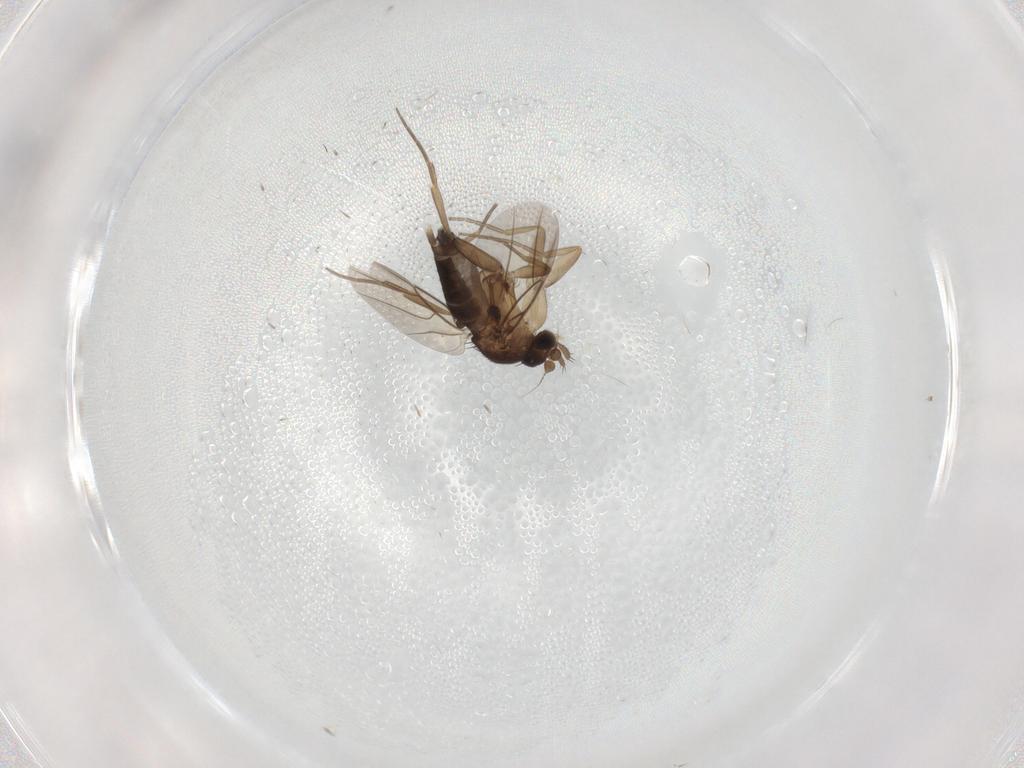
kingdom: Animalia
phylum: Arthropoda
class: Insecta
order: Diptera
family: Phoridae
